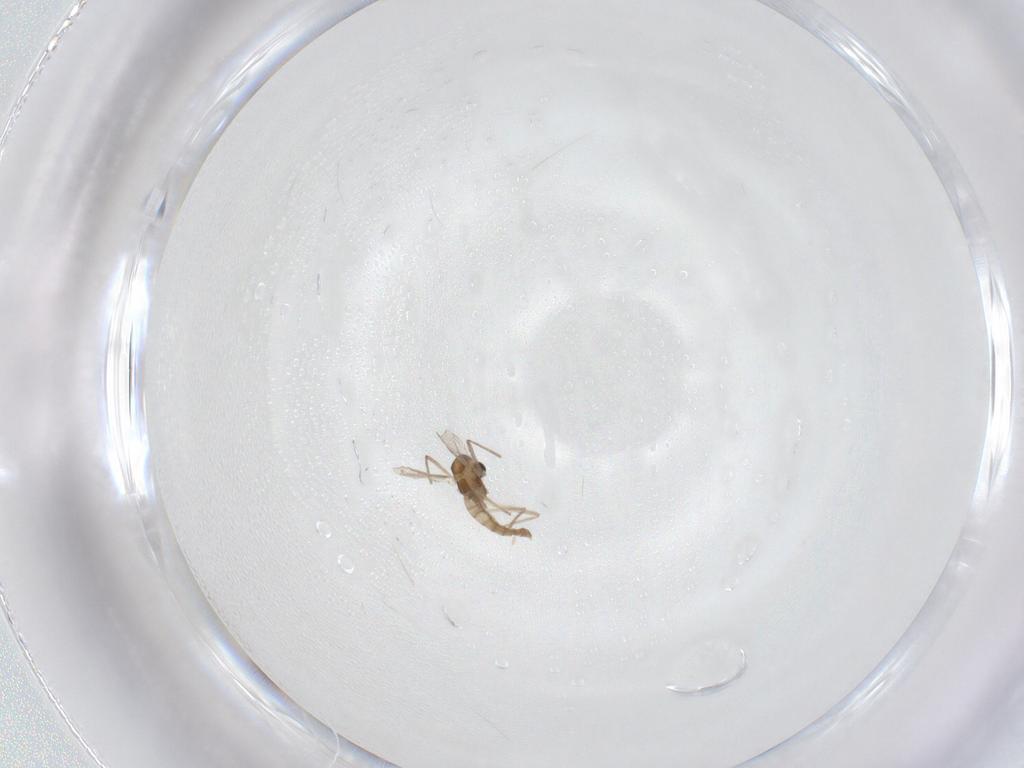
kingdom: Animalia
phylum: Arthropoda
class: Insecta
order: Diptera
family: Chironomidae
